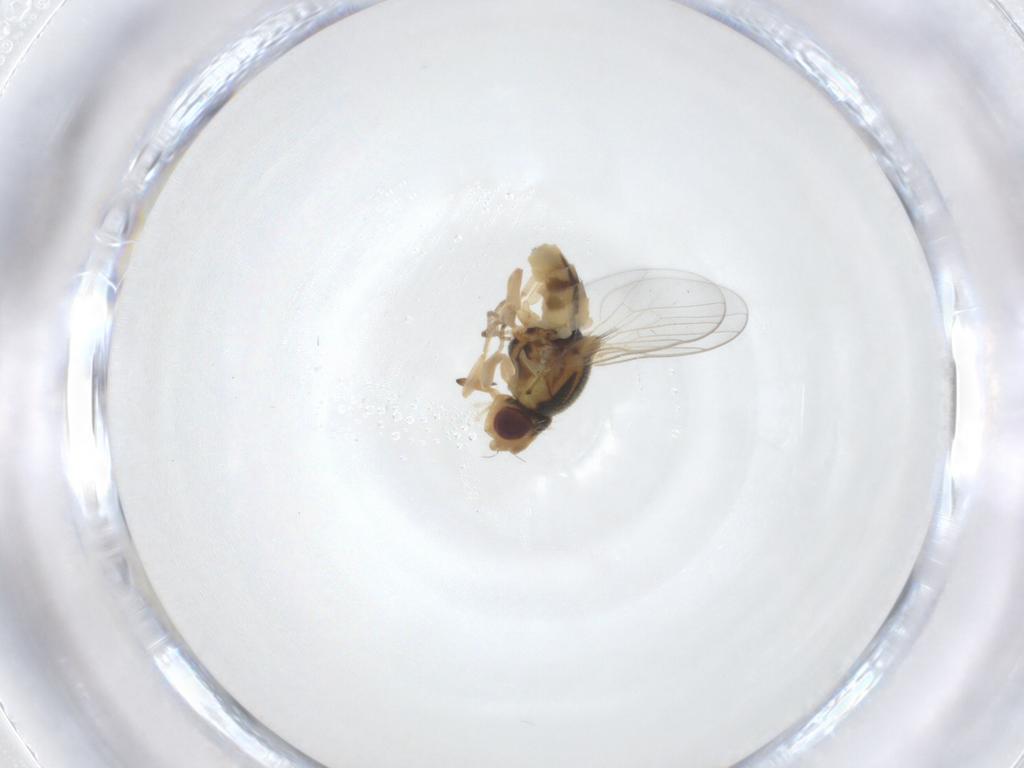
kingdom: Animalia
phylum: Arthropoda
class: Insecta
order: Diptera
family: Chloropidae
